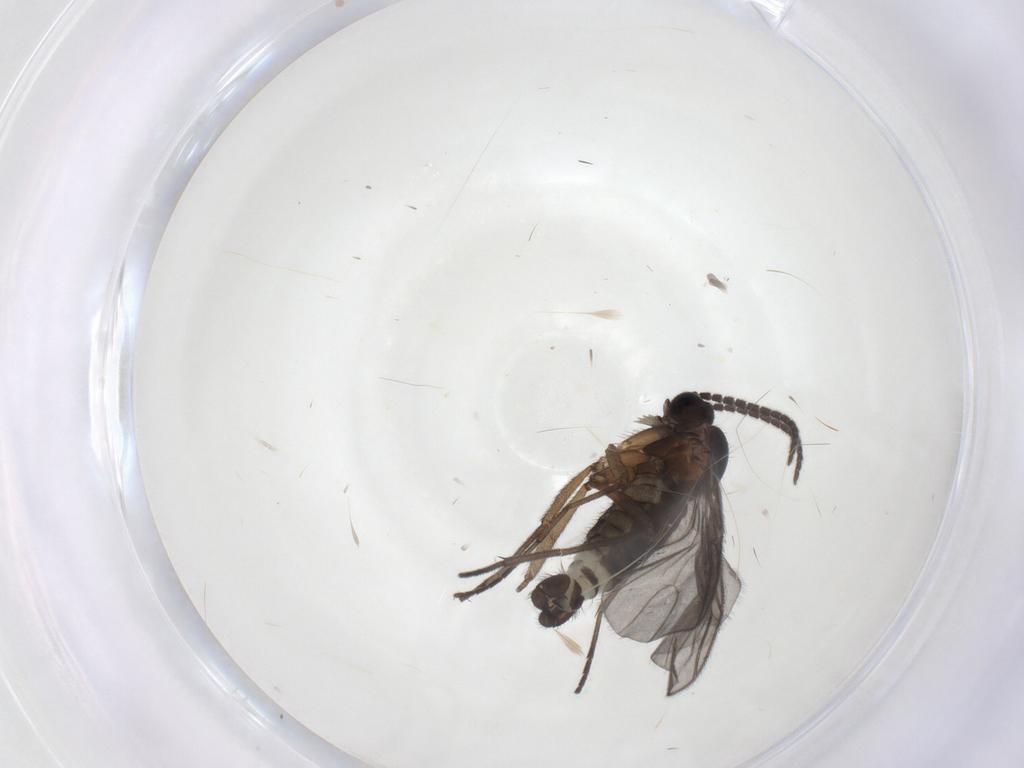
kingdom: Animalia
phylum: Arthropoda
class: Insecta
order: Diptera
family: Sciaridae
